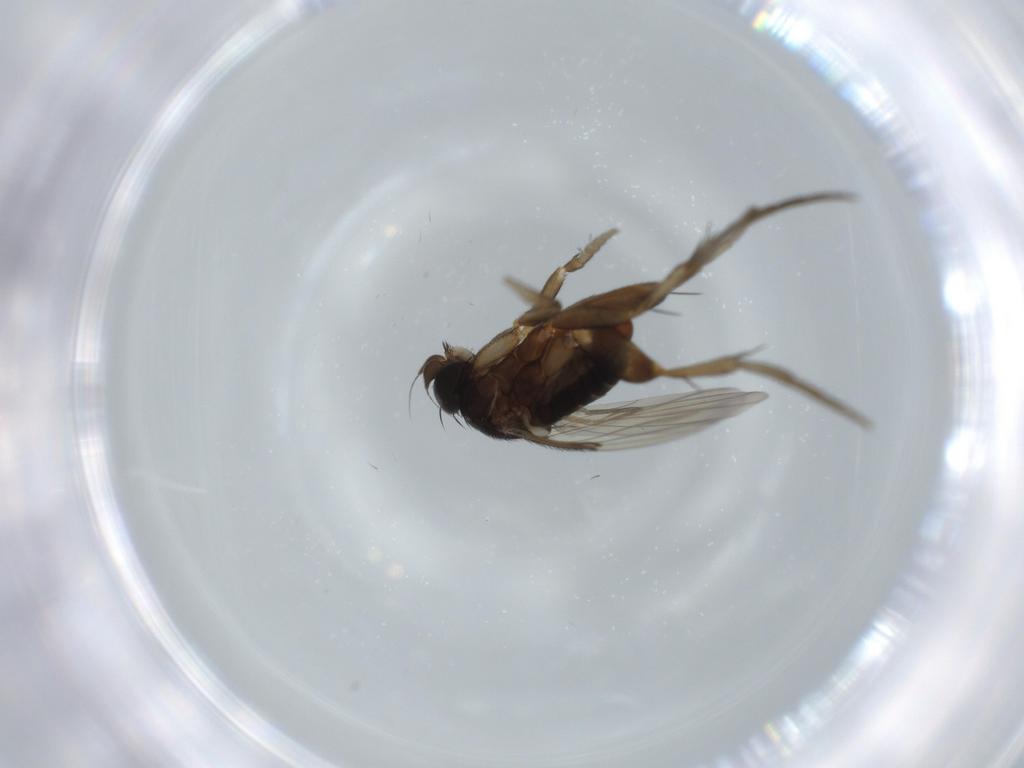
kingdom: Animalia
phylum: Arthropoda
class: Insecta
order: Diptera
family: Phoridae
